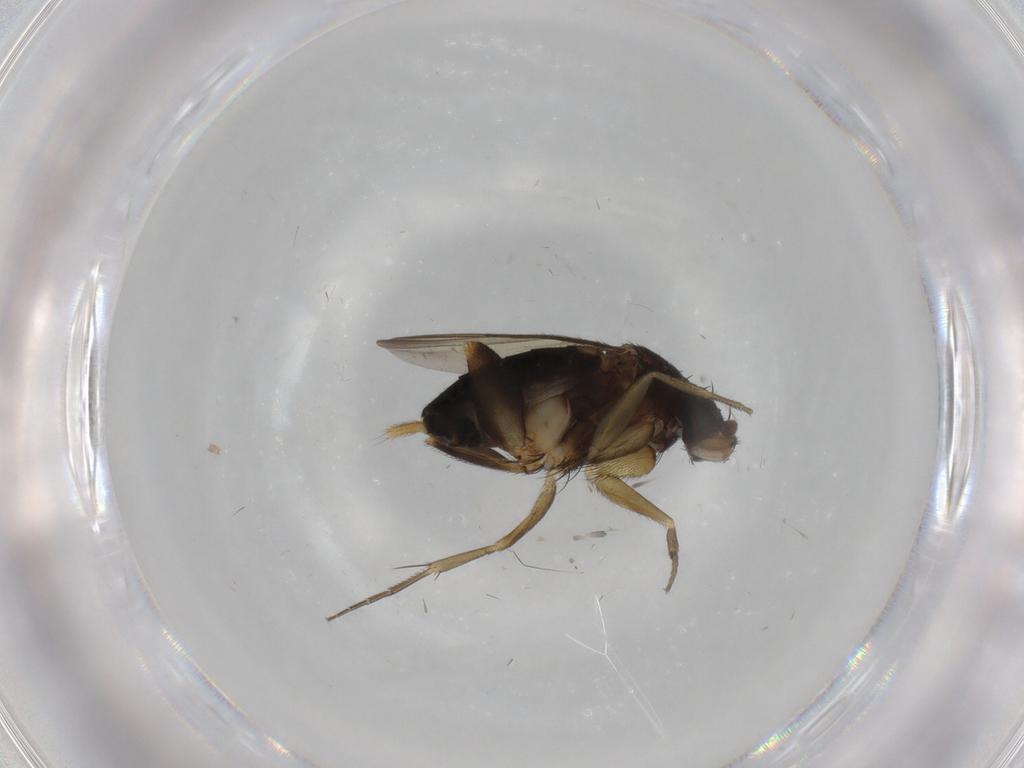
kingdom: Animalia
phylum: Arthropoda
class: Insecta
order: Diptera
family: Phoridae
